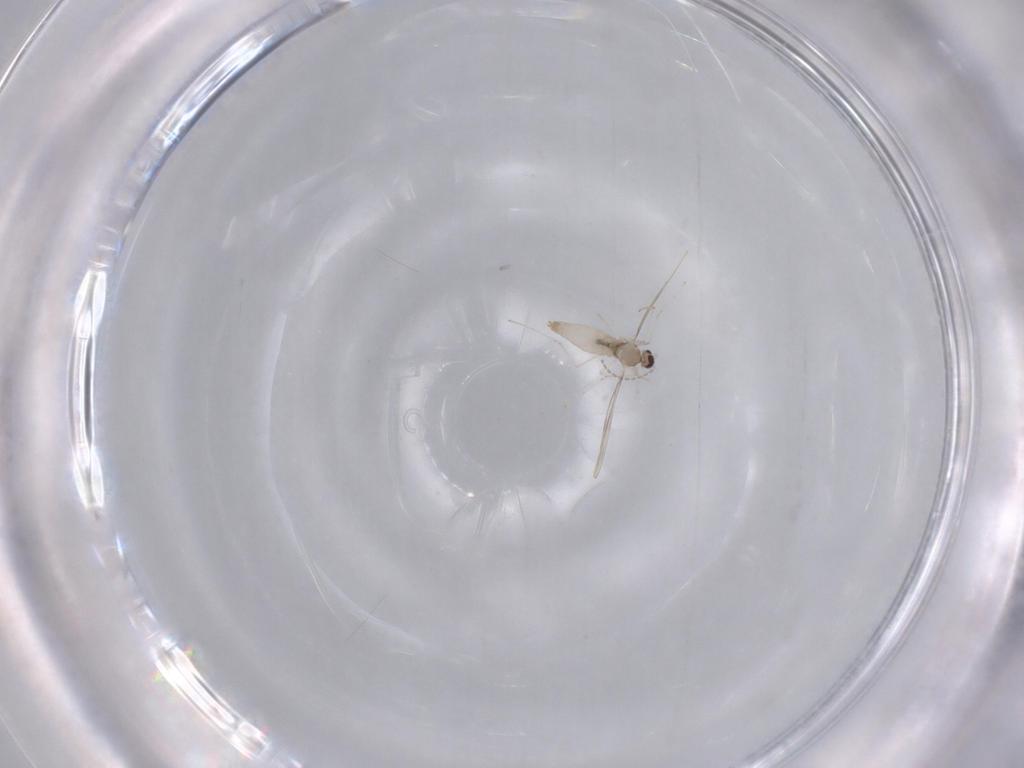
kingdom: Animalia
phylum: Arthropoda
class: Insecta
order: Diptera
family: Cecidomyiidae
